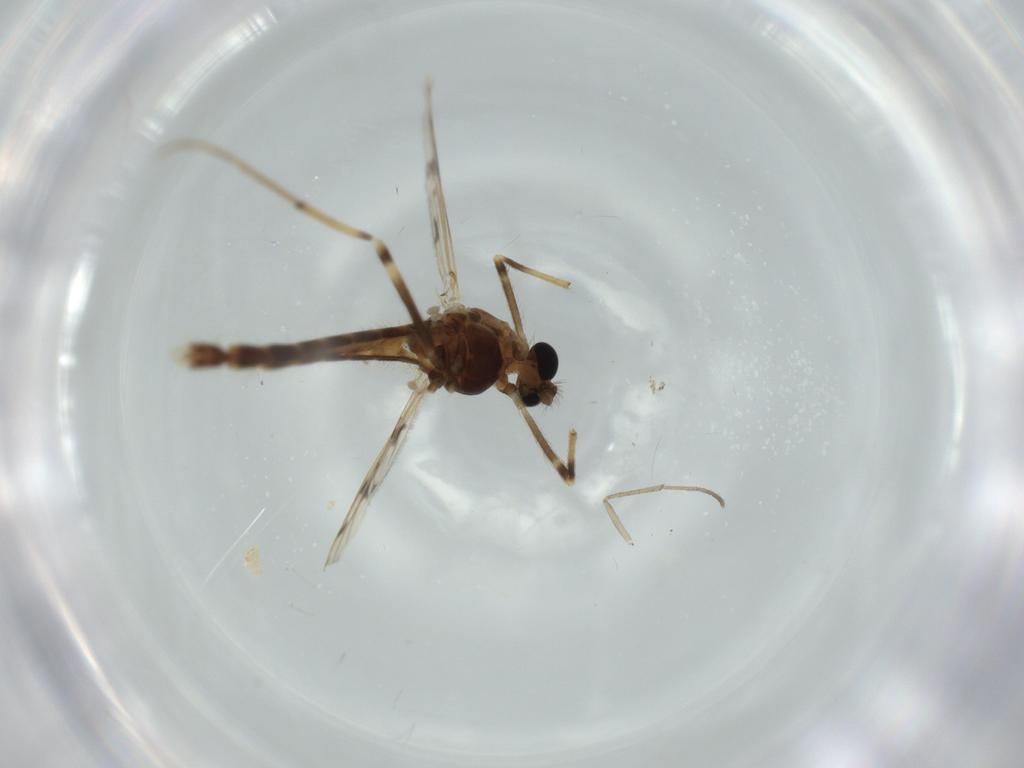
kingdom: Animalia
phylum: Arthropoda
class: Insecta
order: Diptera
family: Chironomidae
